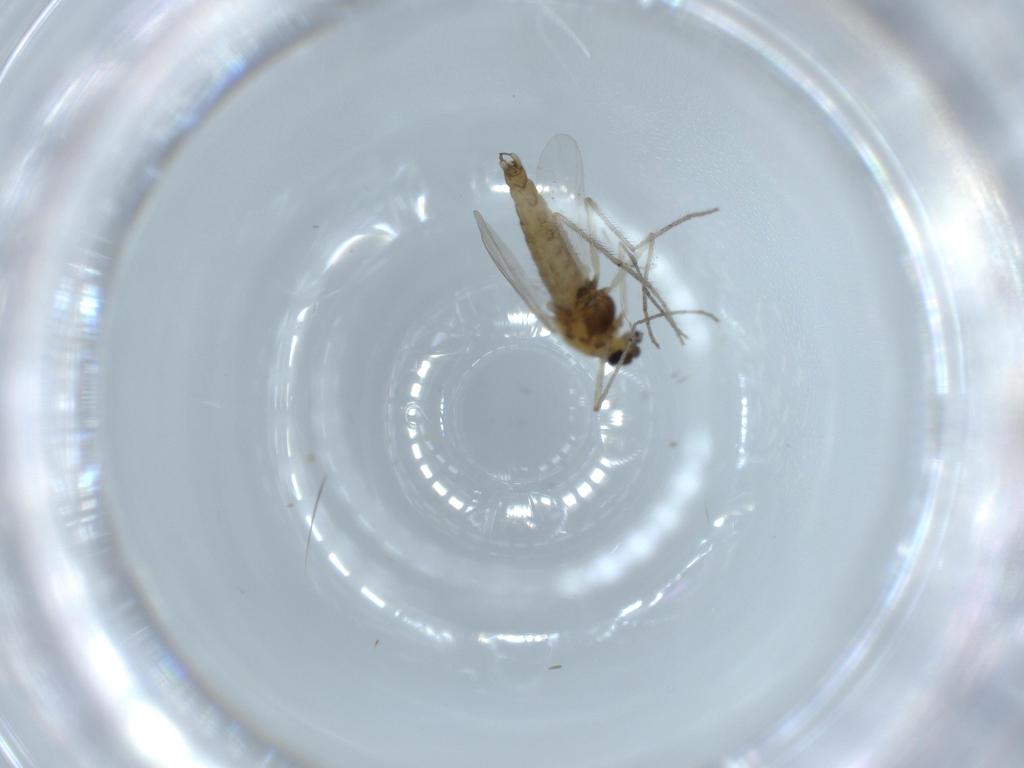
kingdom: Animalia
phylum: Arthropoda
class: Insecta
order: Diptera
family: Chironomidae
